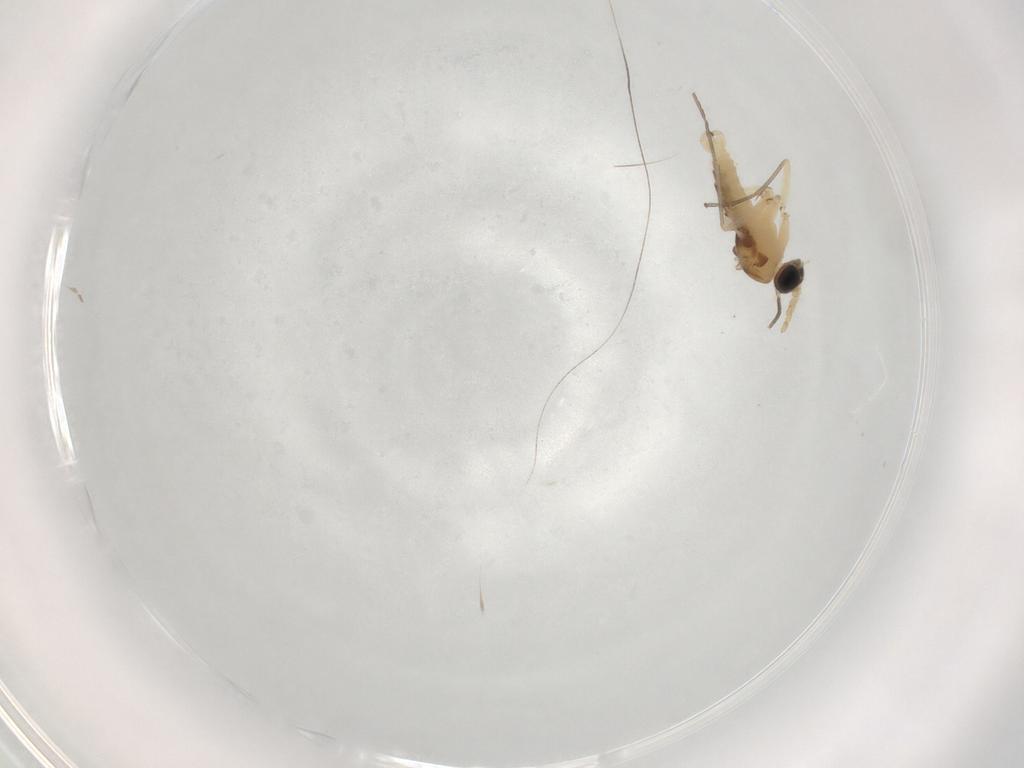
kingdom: Animalia
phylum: Arthropoda
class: Insecta
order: Diptera
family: Sciaridae
